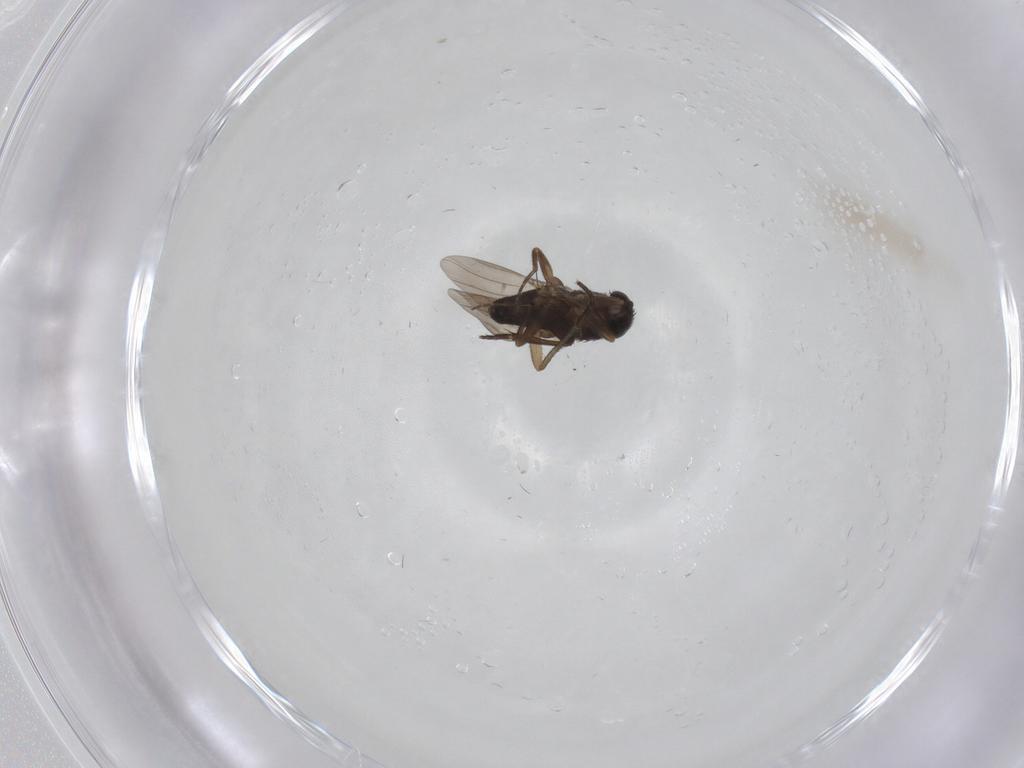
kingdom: Animalia
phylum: Arthropoda
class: Insecta
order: Diptera
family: Phoridae
